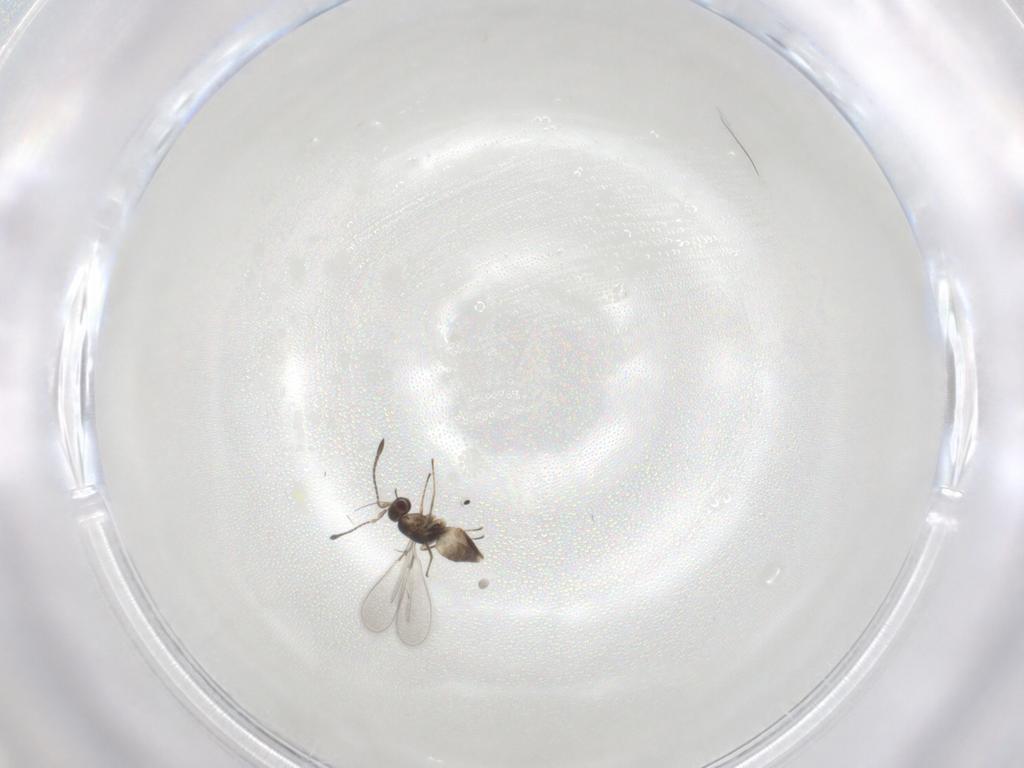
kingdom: Animalia
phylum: Arthropoda
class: Insecta
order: Hymenoptera
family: Mymaridae
